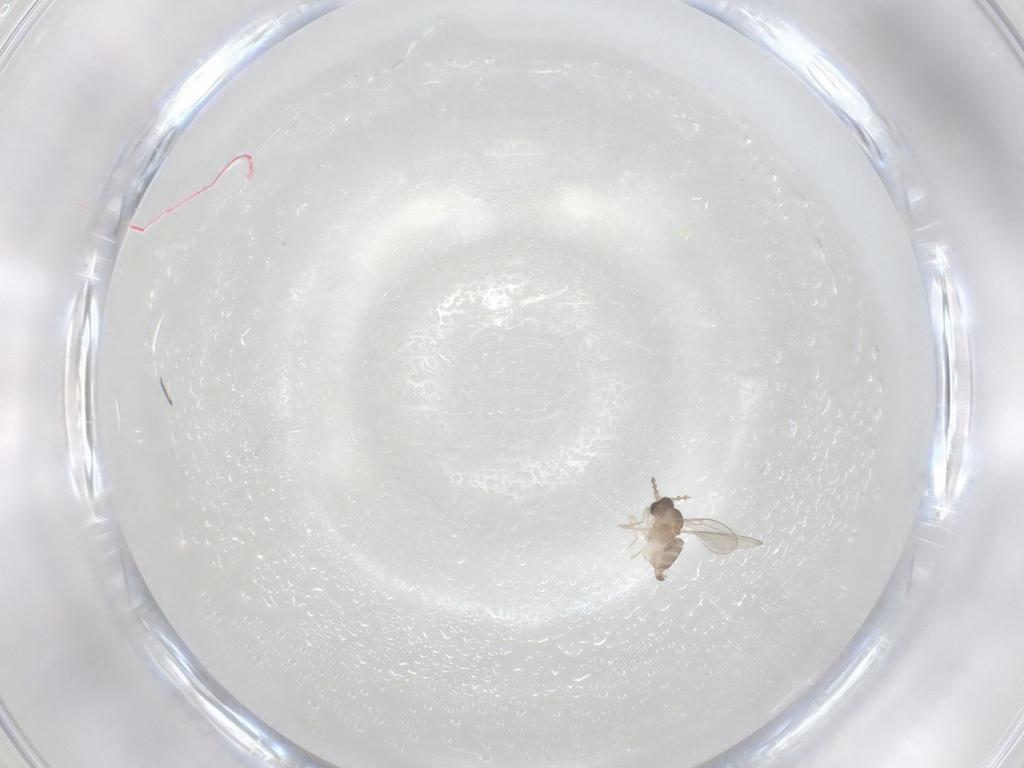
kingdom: Animalia
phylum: Arthropoda
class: Insecta
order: Diptera
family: Cecidomyiidae
